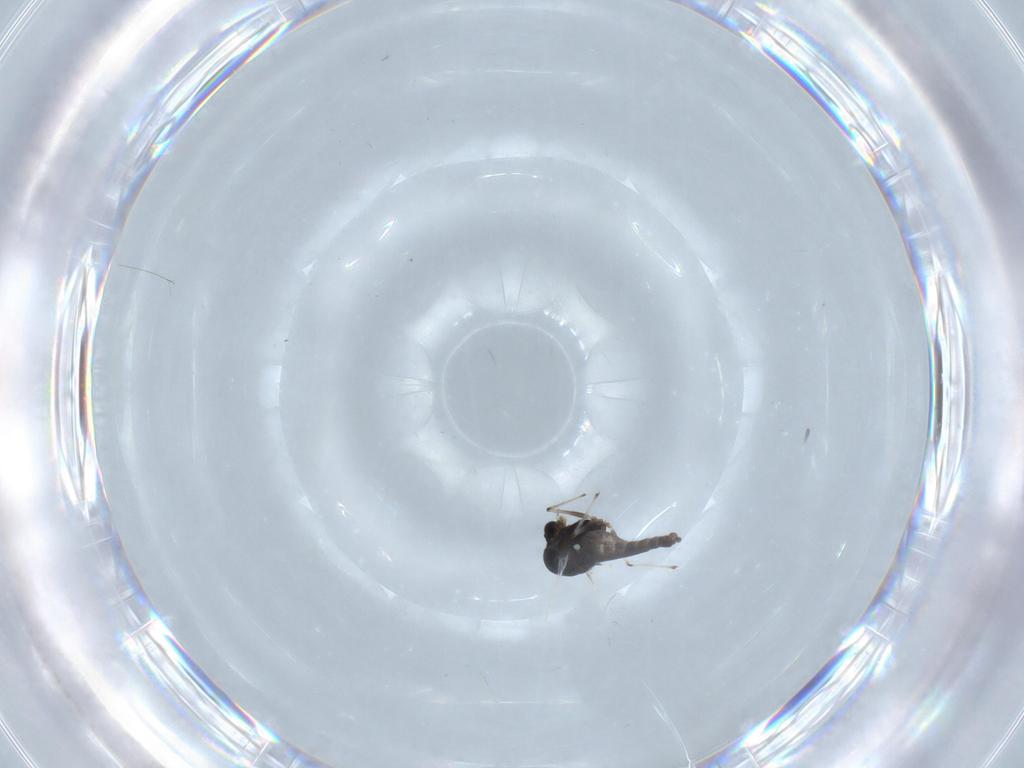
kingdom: Animalia
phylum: Arthropoda
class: Insecta
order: Diptera
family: Chironomidae
